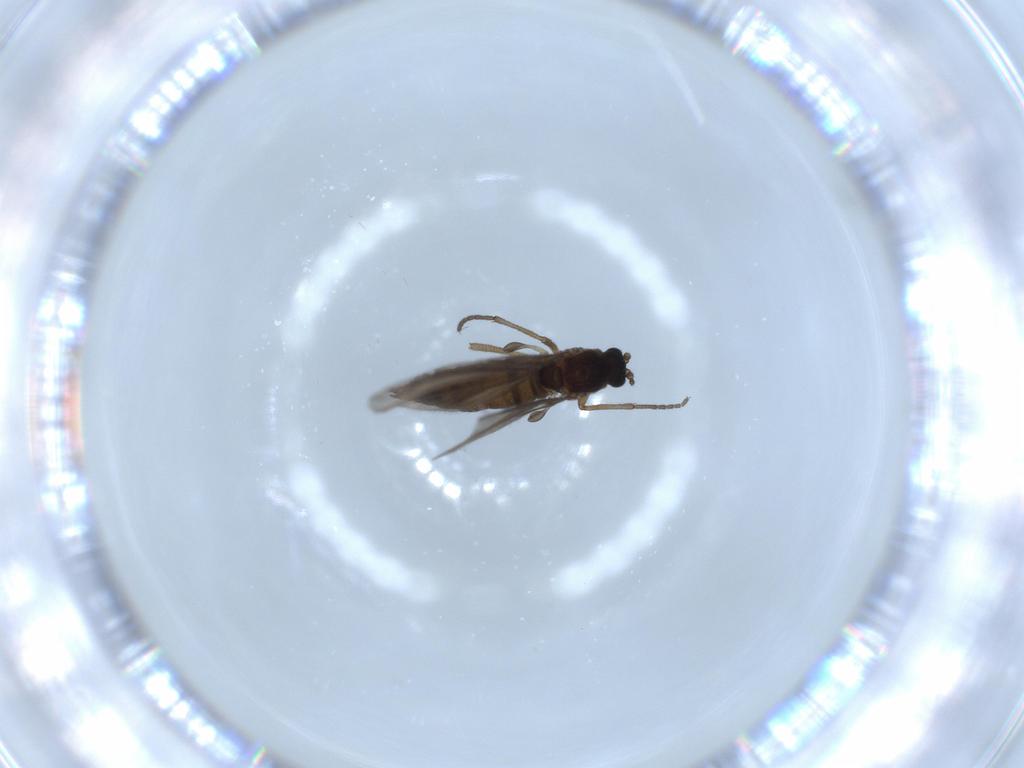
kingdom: Animalia
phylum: Arthropoda
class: Insecta
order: Diptera
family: Sciaridae
